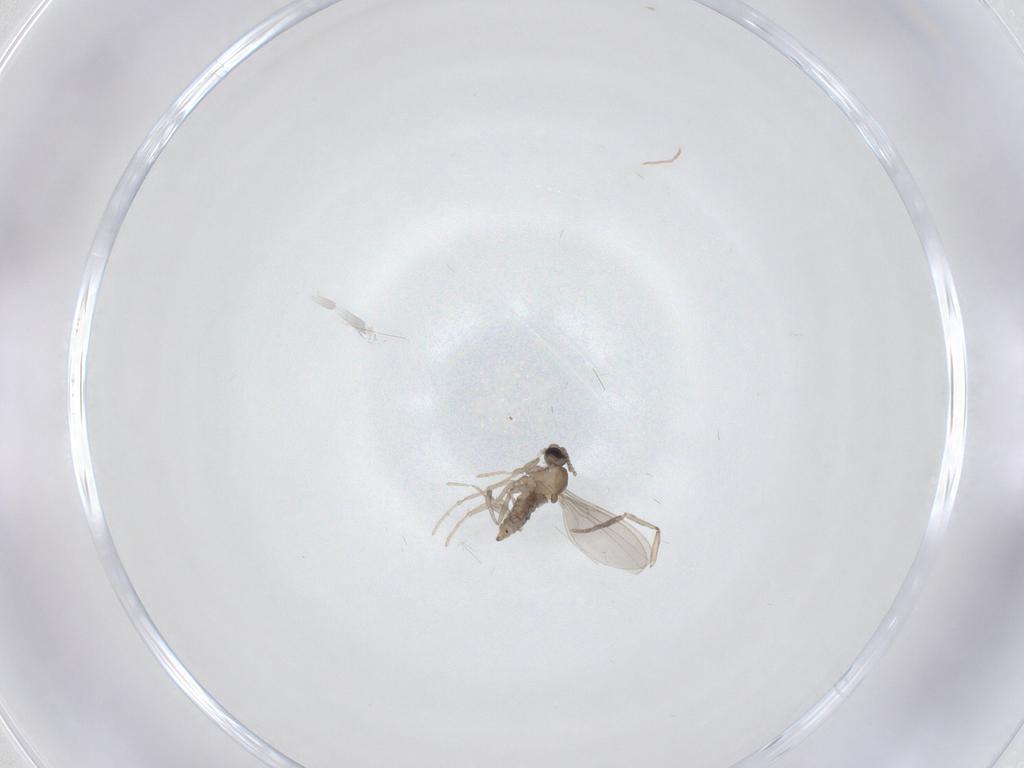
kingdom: Animalia
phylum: Arthropoda
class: Insecta
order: Diptera
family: Psychodidae
